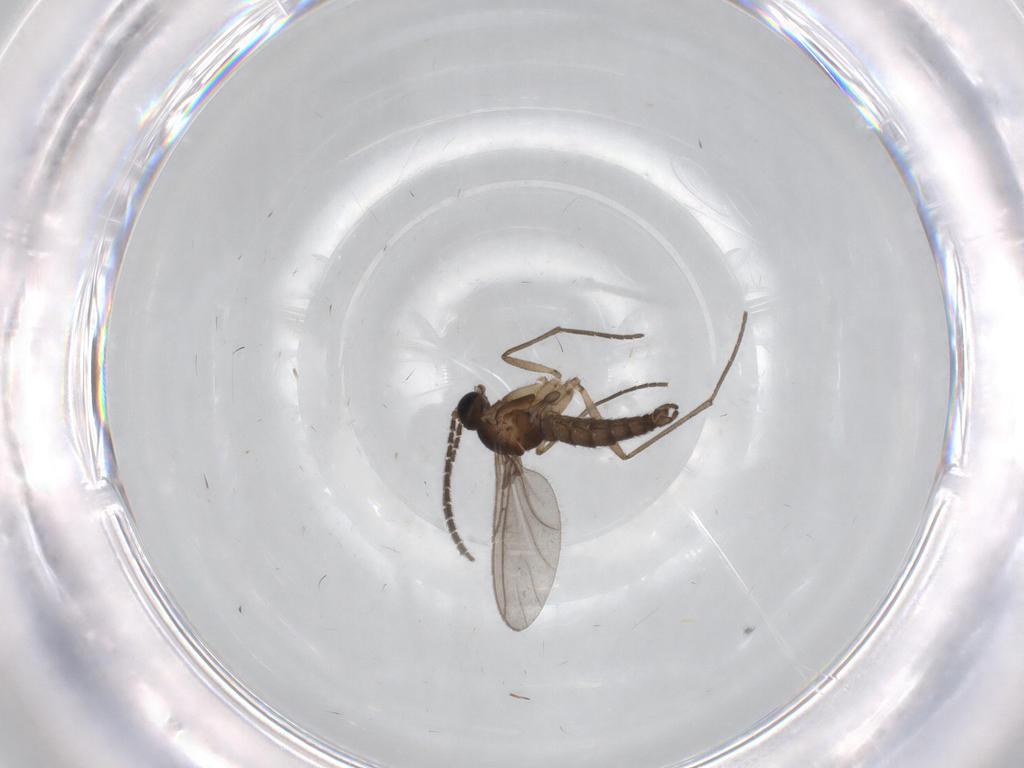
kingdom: Animalia
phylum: Arthropoda
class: Insecta
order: Diptera
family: Sciaridae
